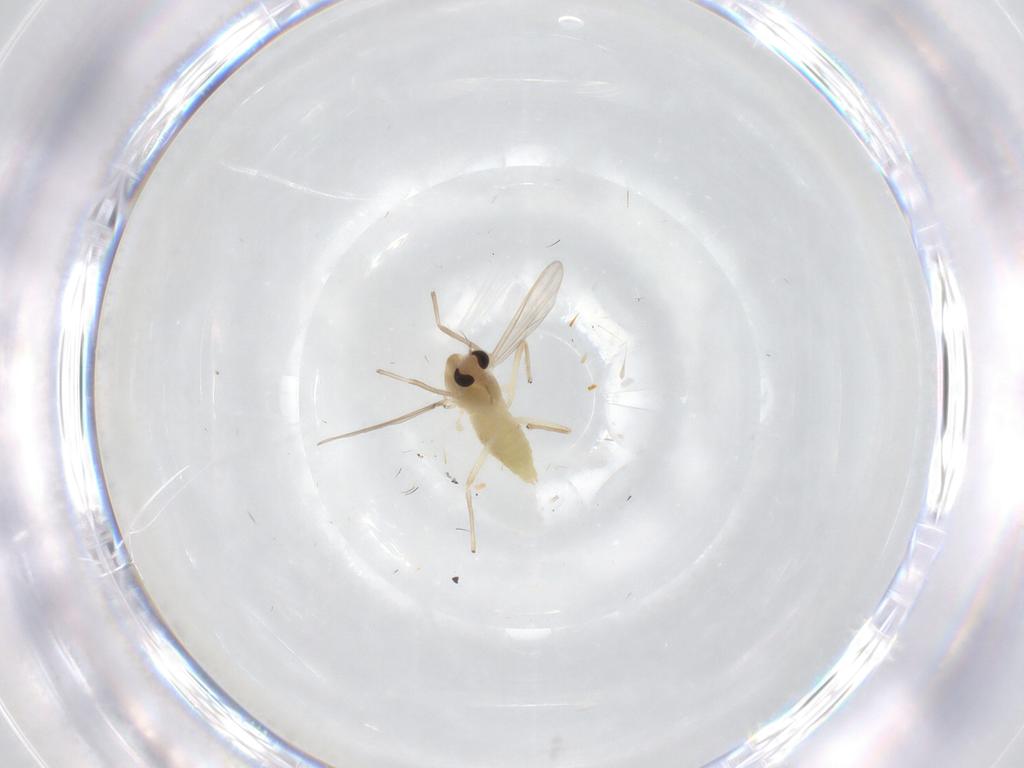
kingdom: Animalia
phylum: Arthropoda
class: Insecta
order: Diptera
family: Chironomidae
